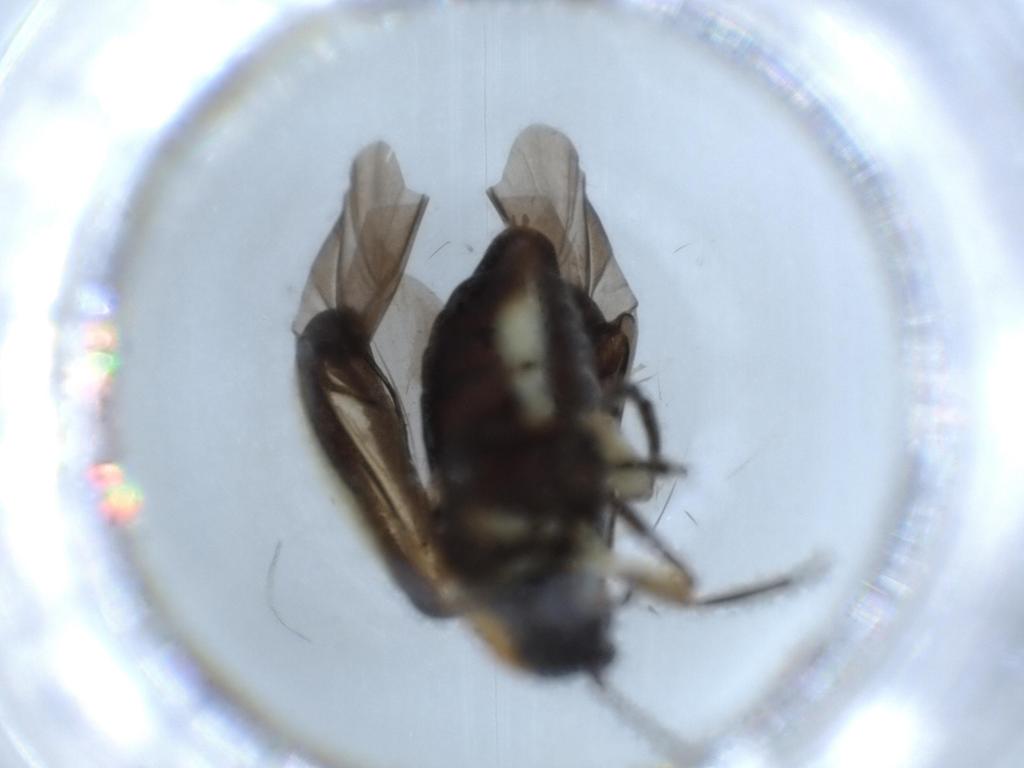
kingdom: Animalia
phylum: Arthropoda
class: Insecta
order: Coleoptera
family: Chrysomelidae
